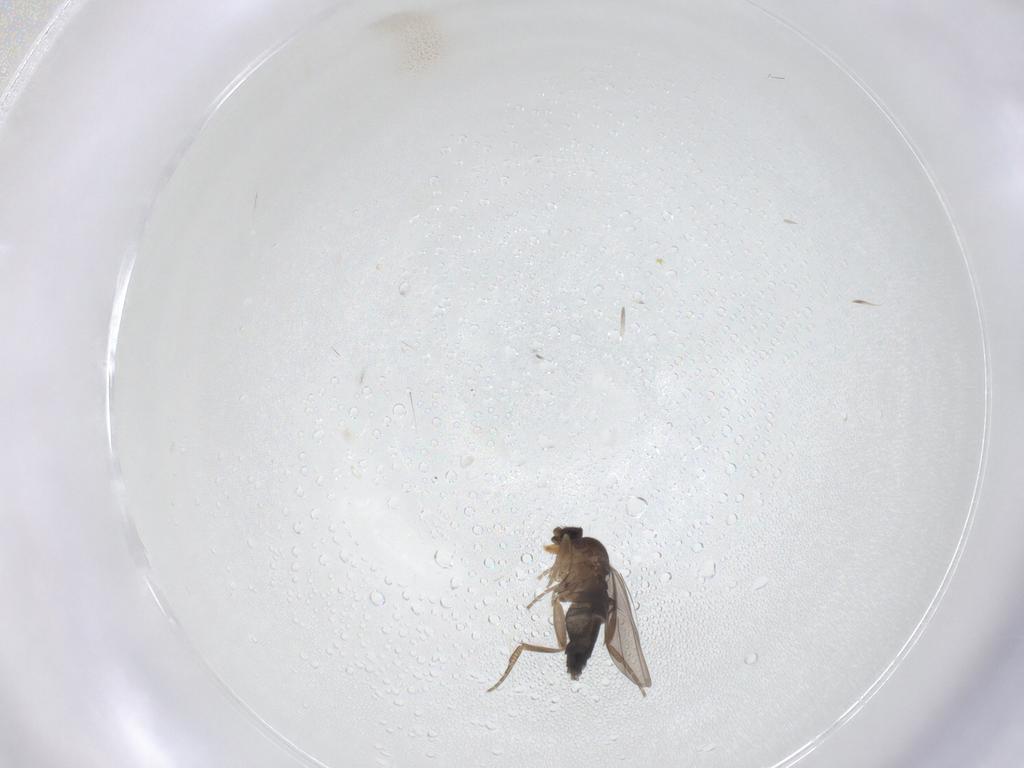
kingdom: Animalia
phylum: Arthropoda
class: Insecta
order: Diptera
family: Phoridae
